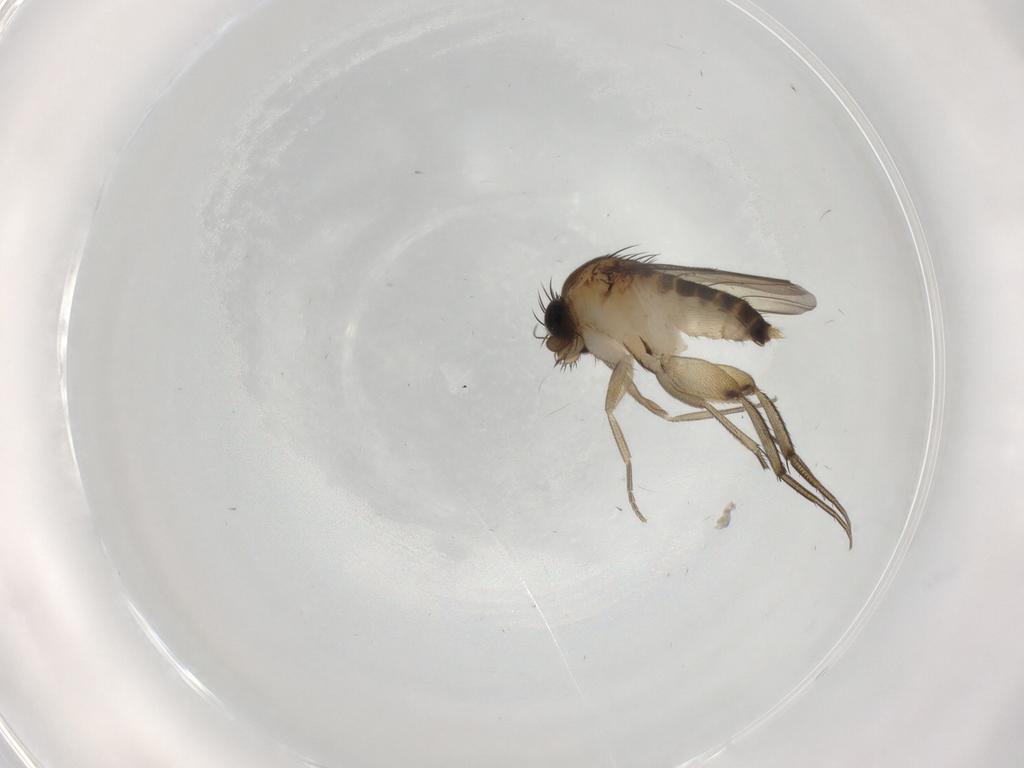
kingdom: Animalia
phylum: Arthropoda
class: Insecta
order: Diptera
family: Phoridae
